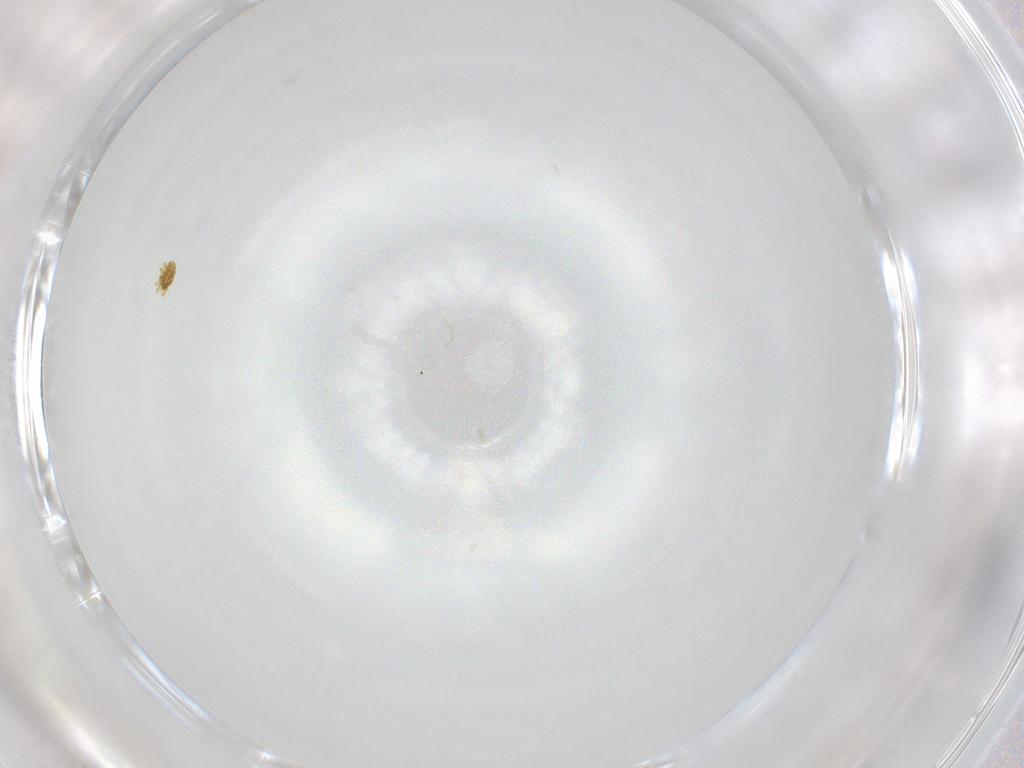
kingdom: Animalia
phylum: Arthropoda
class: Arachnida
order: Trombidiformes
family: Eupodidae
